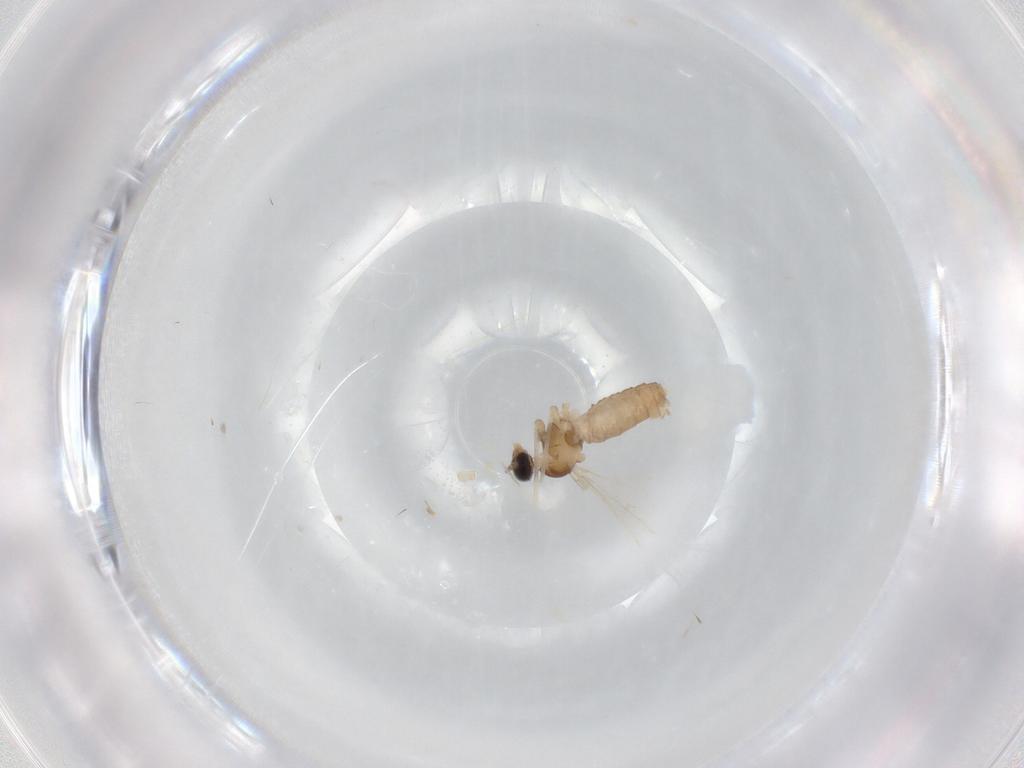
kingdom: Animalia
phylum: Arthropoda
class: Insecta
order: Diptera
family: Cecidomyiidae
